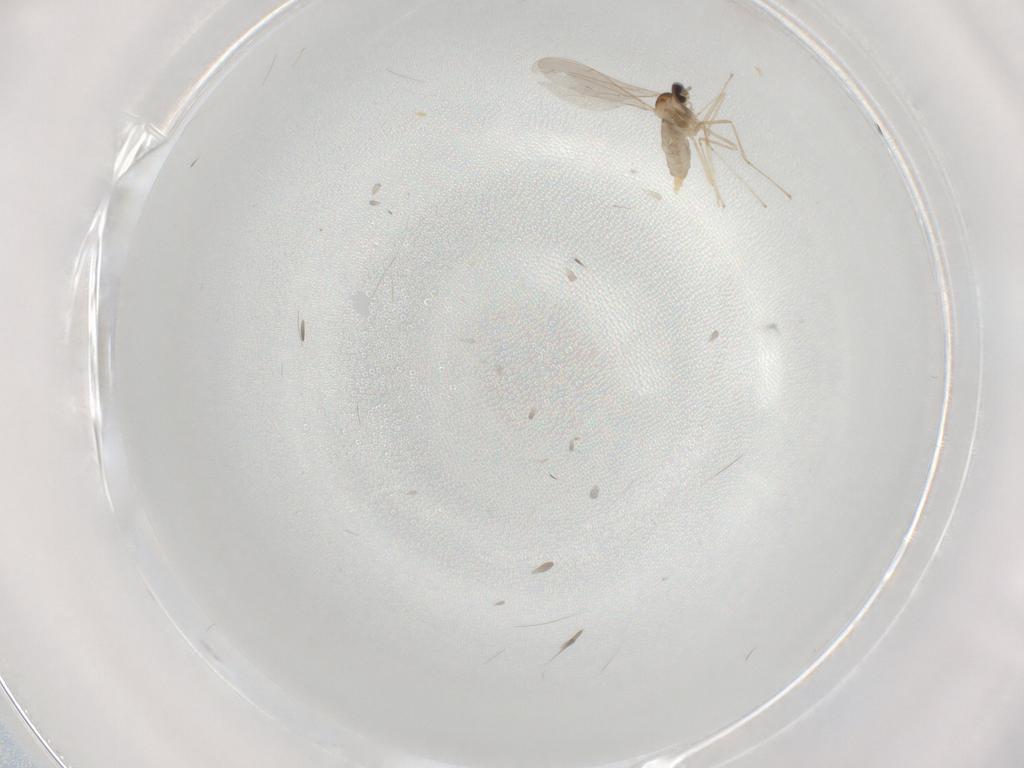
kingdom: Animalia
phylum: Arthropoda
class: Insecta
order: Diptera
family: Cecidomyiidae
